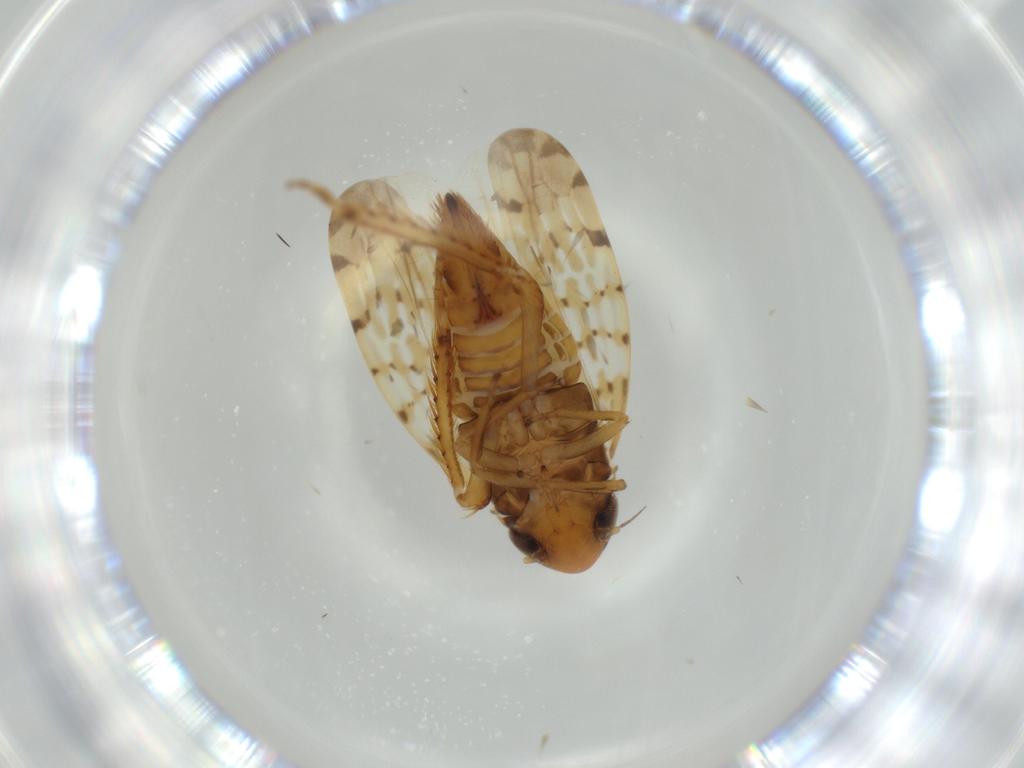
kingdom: Animalia
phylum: Arthropoda
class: Insecta
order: Hemiptera
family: Cicadellidae
